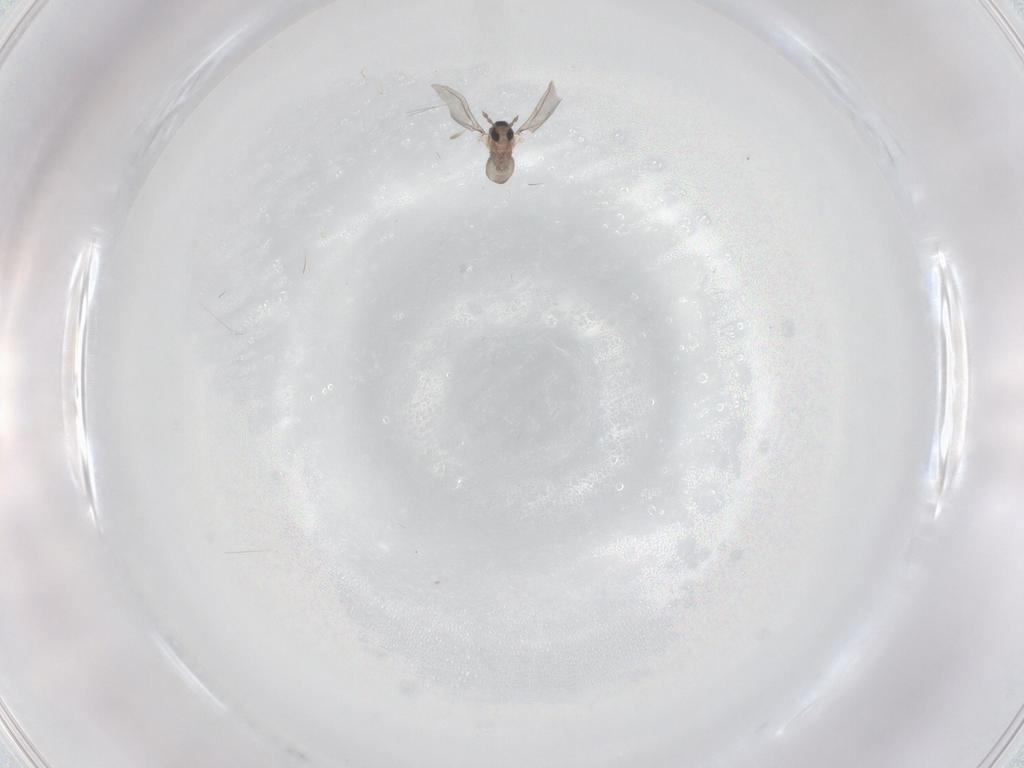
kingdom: Animalia
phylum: Arthropoda
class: Insecta
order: Diptera
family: Cecidomyiidae
